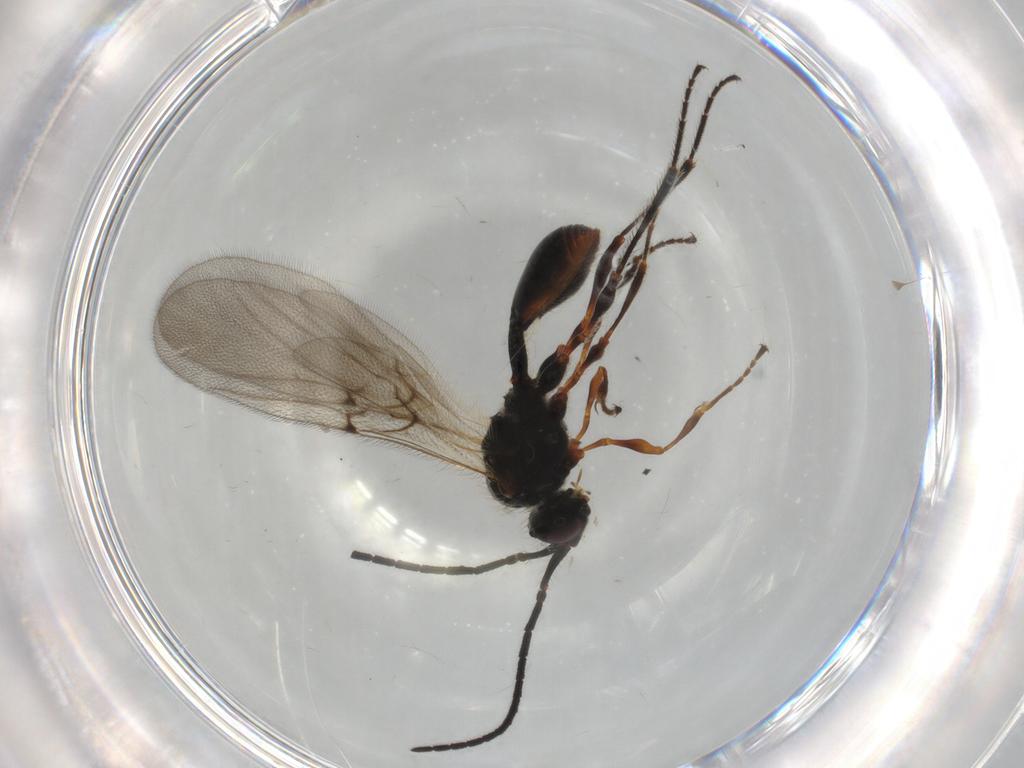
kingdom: Animalia
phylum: Arthropoda
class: Insecta
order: Hymenoptera
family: Diapriidae
